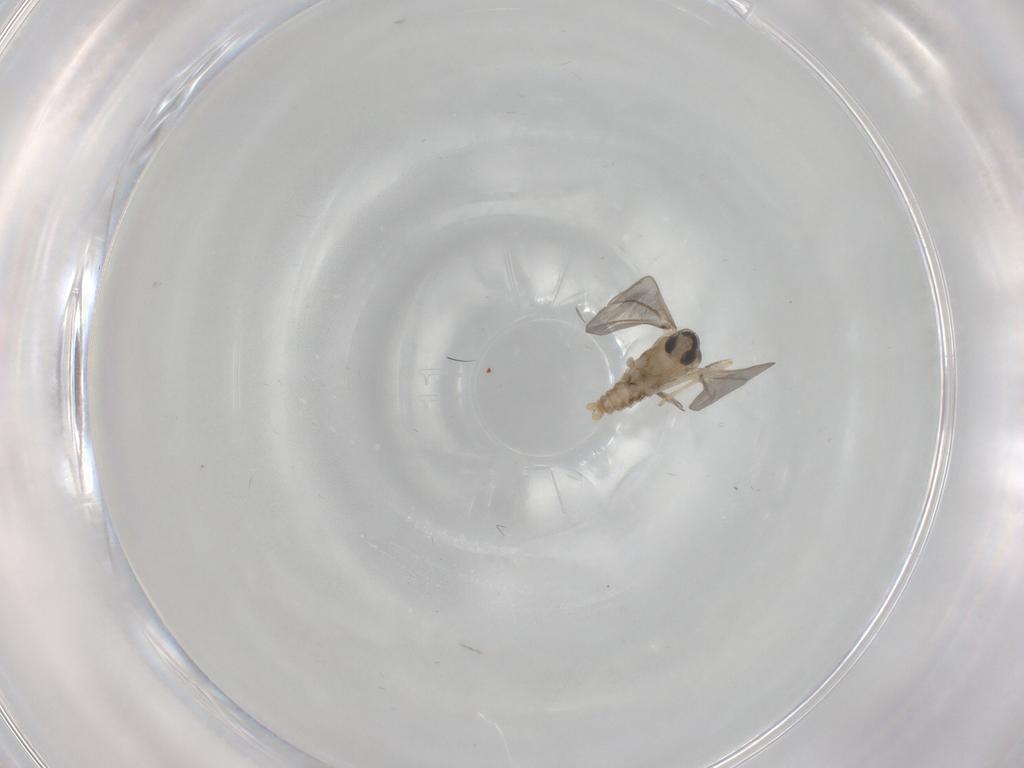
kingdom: Animalia
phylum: Arthropoda
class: Insecta
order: Diptera
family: Cecidomyiidae
